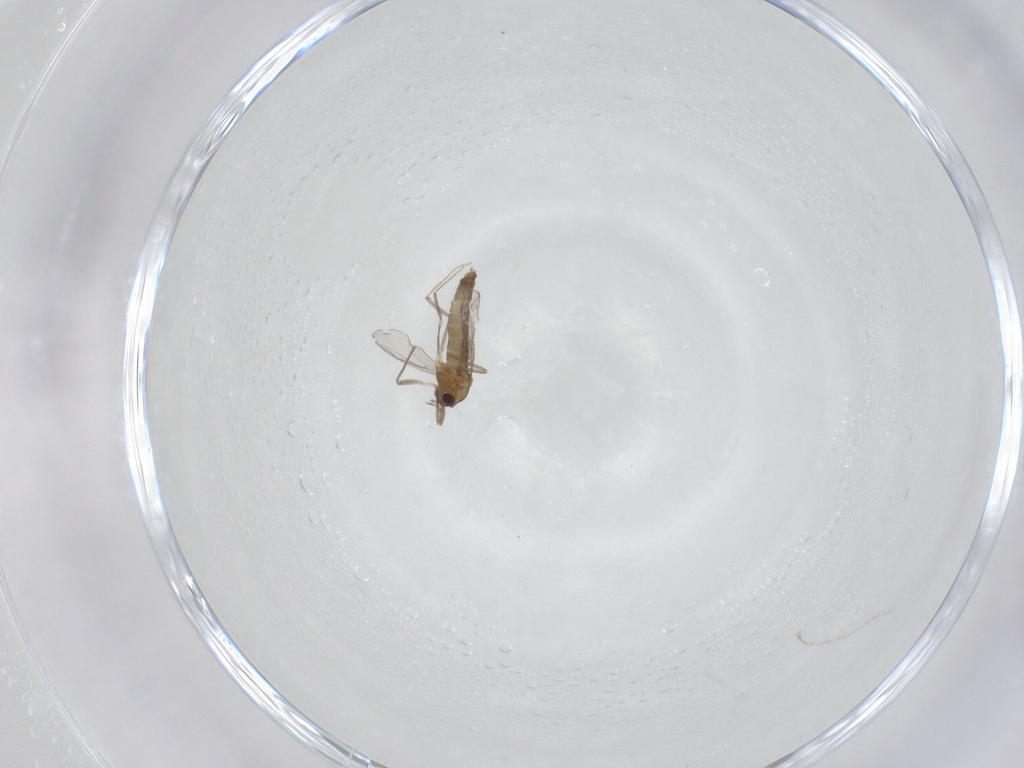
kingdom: Animalia
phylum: Arthropoda
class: Insecta
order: Diptera
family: Chironomidae
